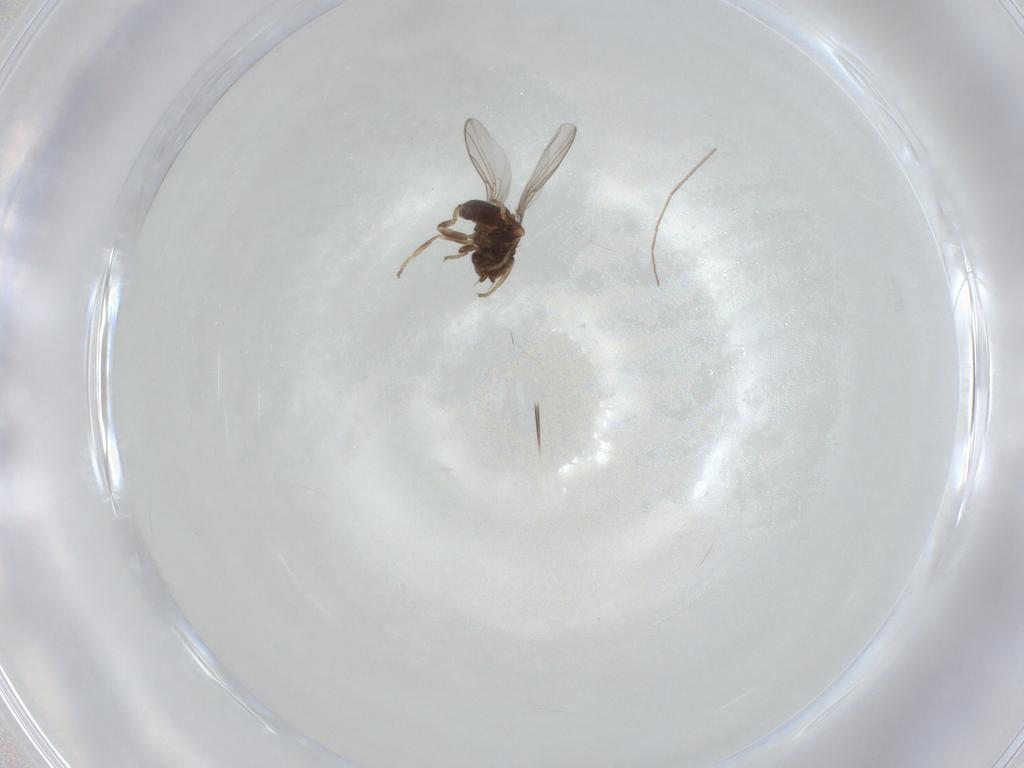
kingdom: Animalia
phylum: Arthropoda
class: Insecta
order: Diptera
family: Chloropidae
